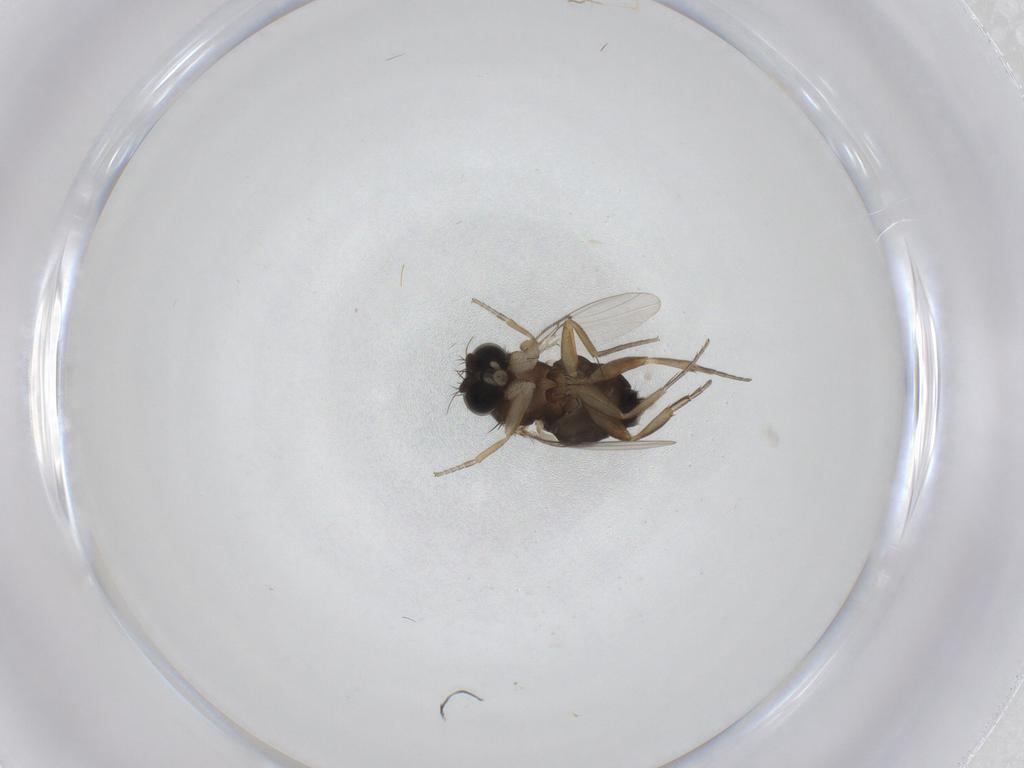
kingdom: Animalia
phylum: Arthropoda
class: Insecta
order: Diptera
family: Cecidomyiidae
